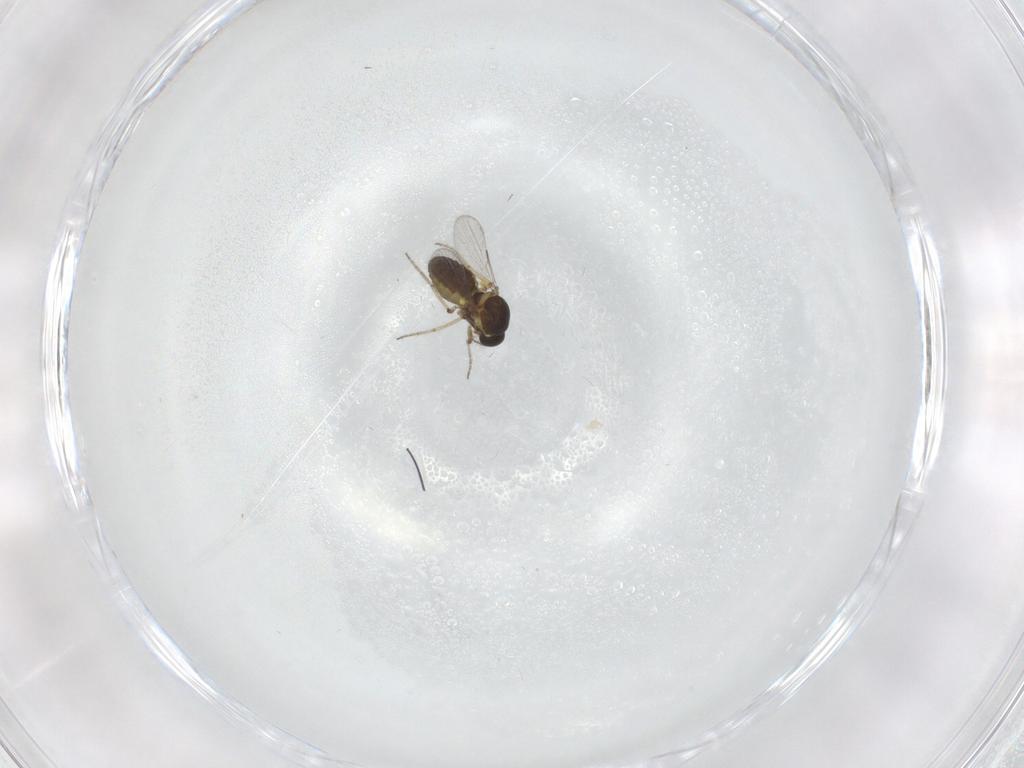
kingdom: Animalia
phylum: Arthropoda
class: Insecta
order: Diptera
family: Ceratopogonidae
